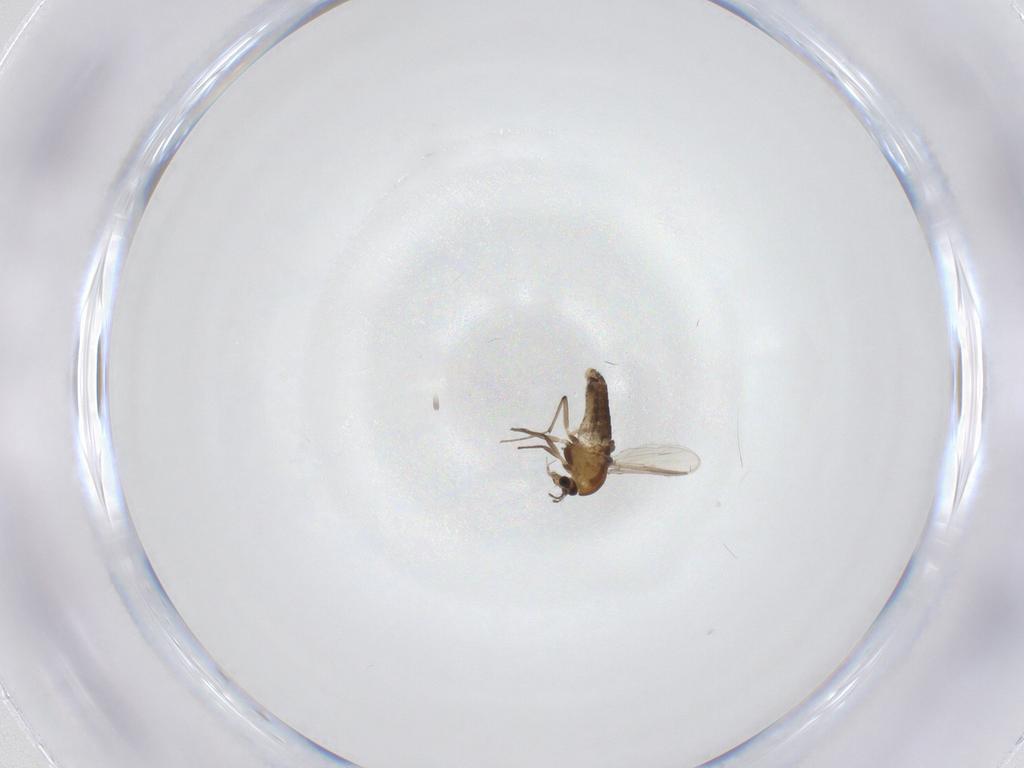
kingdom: Animalia
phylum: Arthropoda
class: Insecta
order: Diptera
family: Chironomidae
